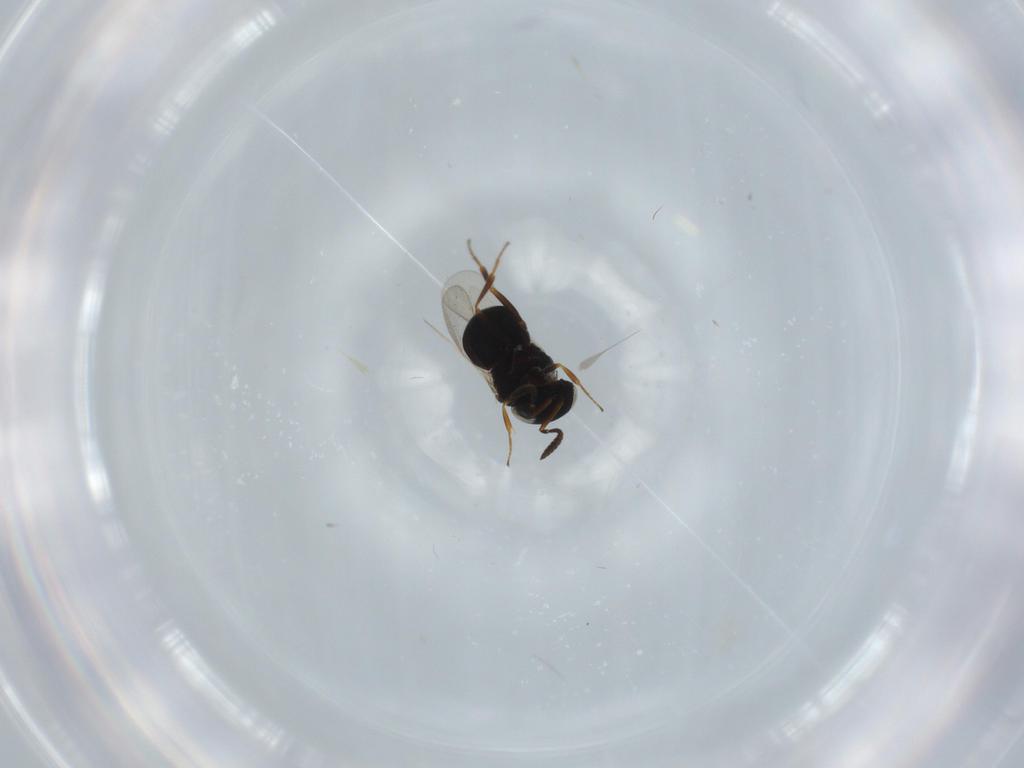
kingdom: Animalia
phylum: Arthropoda
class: Insecta
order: Hymenoptera
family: Scelionidae
